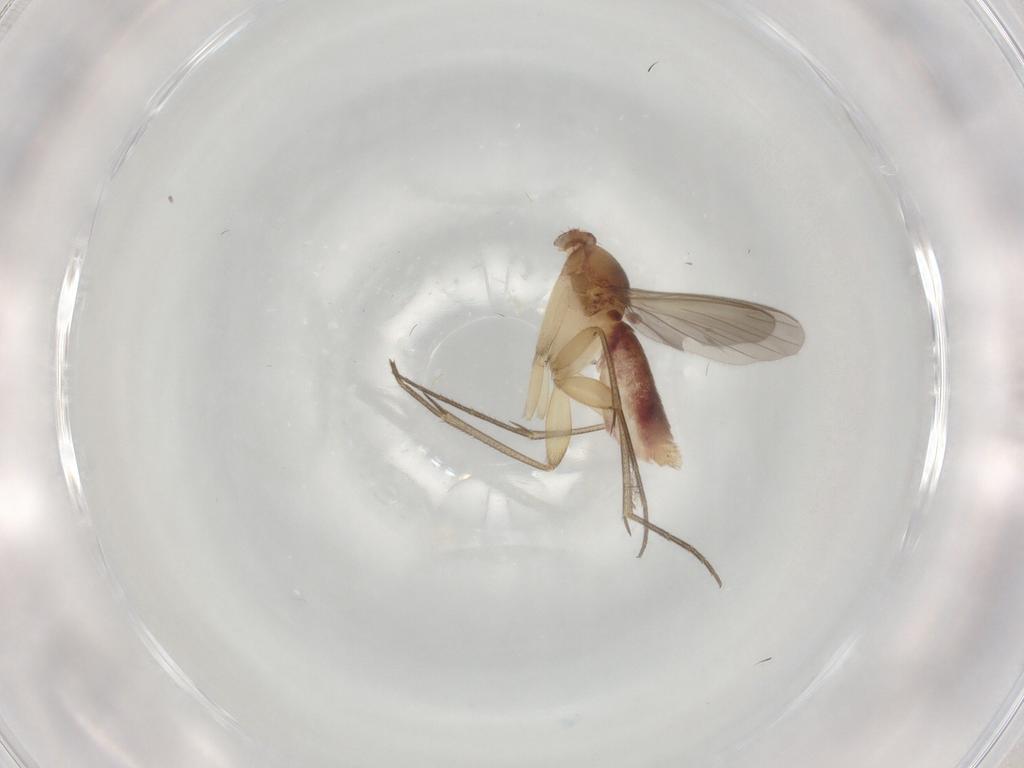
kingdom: Animalia
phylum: Arthropoda
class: Insecta
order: Diptera
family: Mycetophilidae
